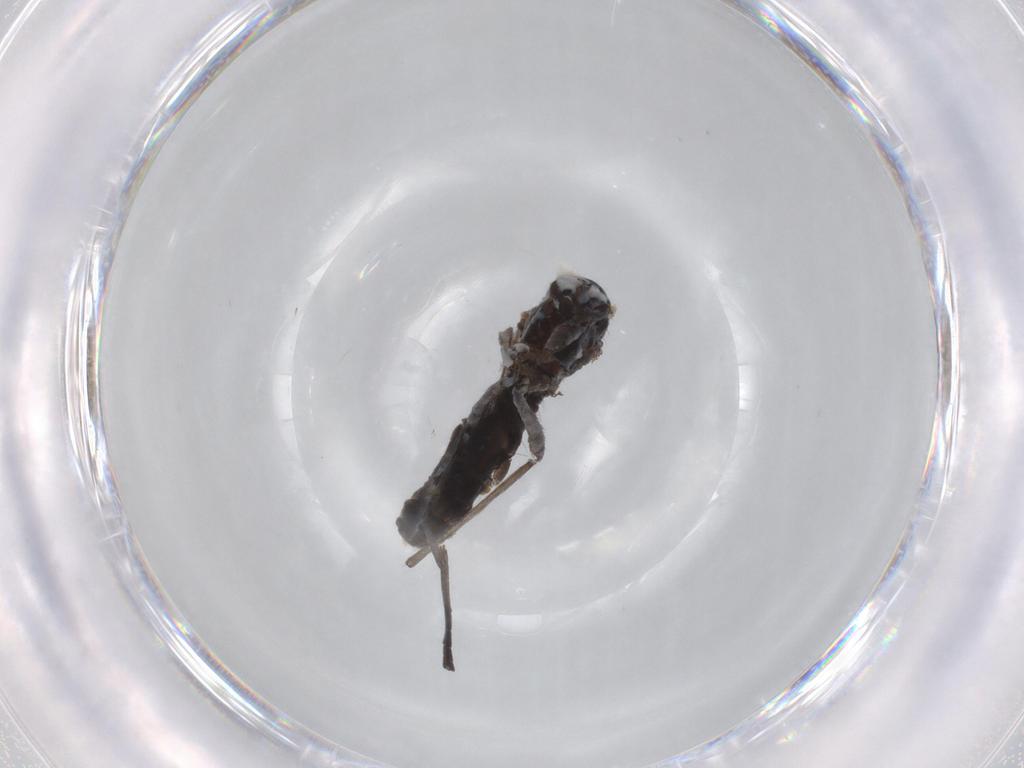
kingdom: Animalia
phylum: Arthropoda
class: Insecta
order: Diptera
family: Sciaridae
